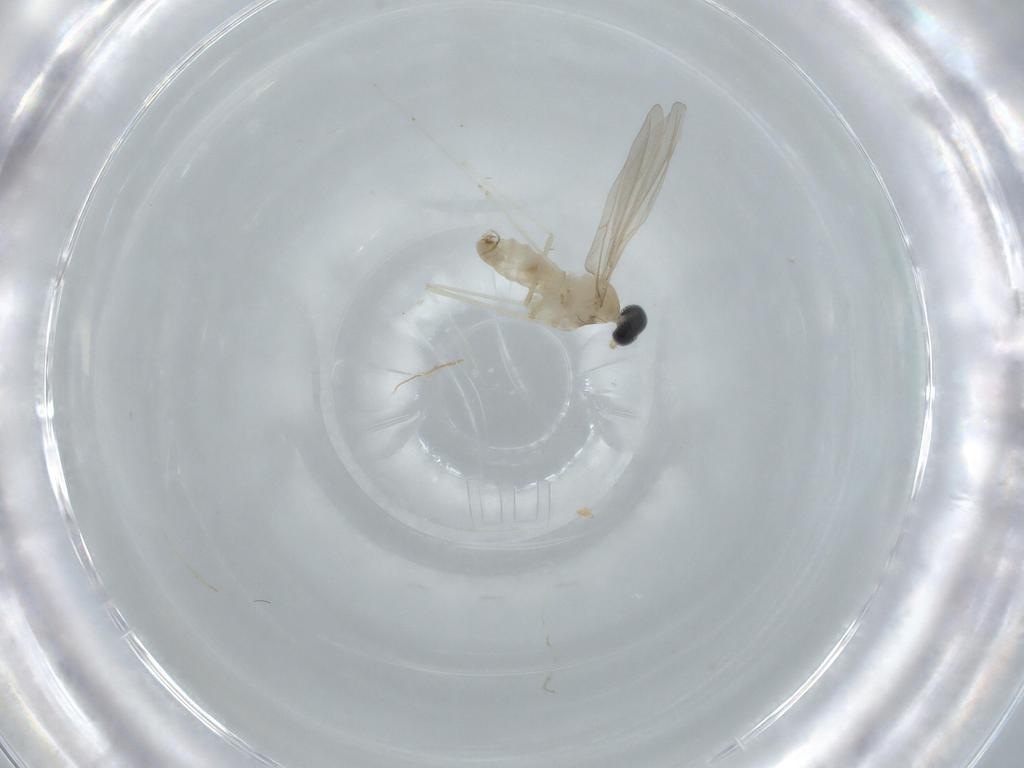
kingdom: Animalia
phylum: Arthropoda
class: Insecta
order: Diptera
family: Cecidomyiidae
